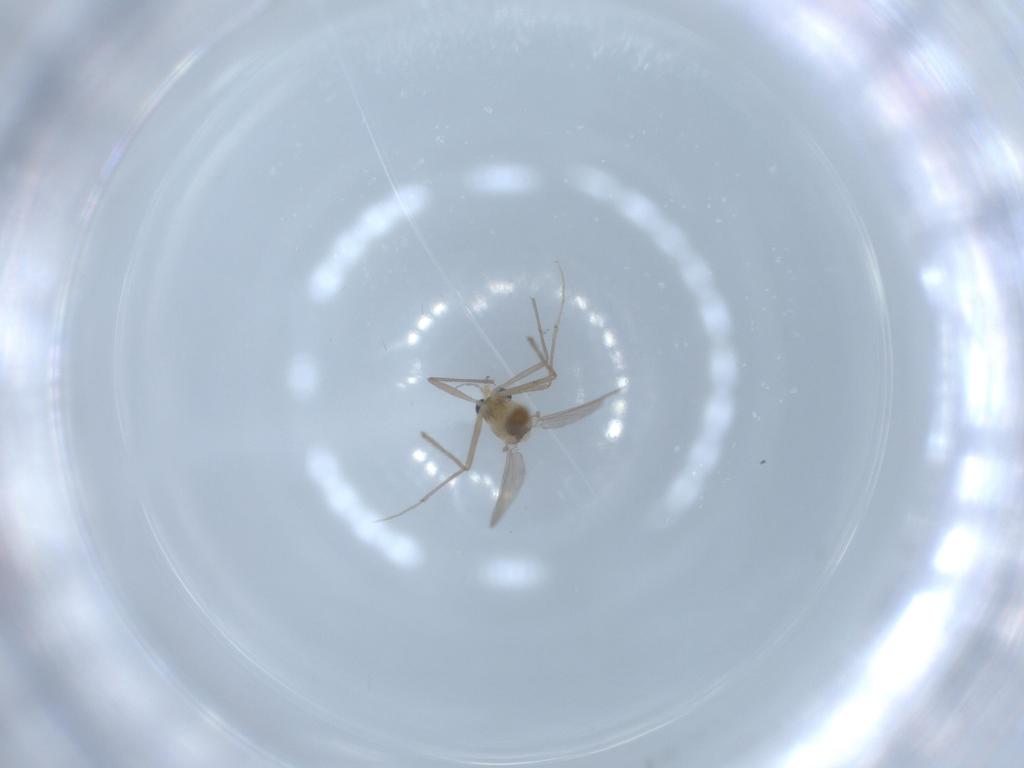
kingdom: Animalia
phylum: Arthropoda
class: Insecta
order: Diptera
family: Chironomidae
